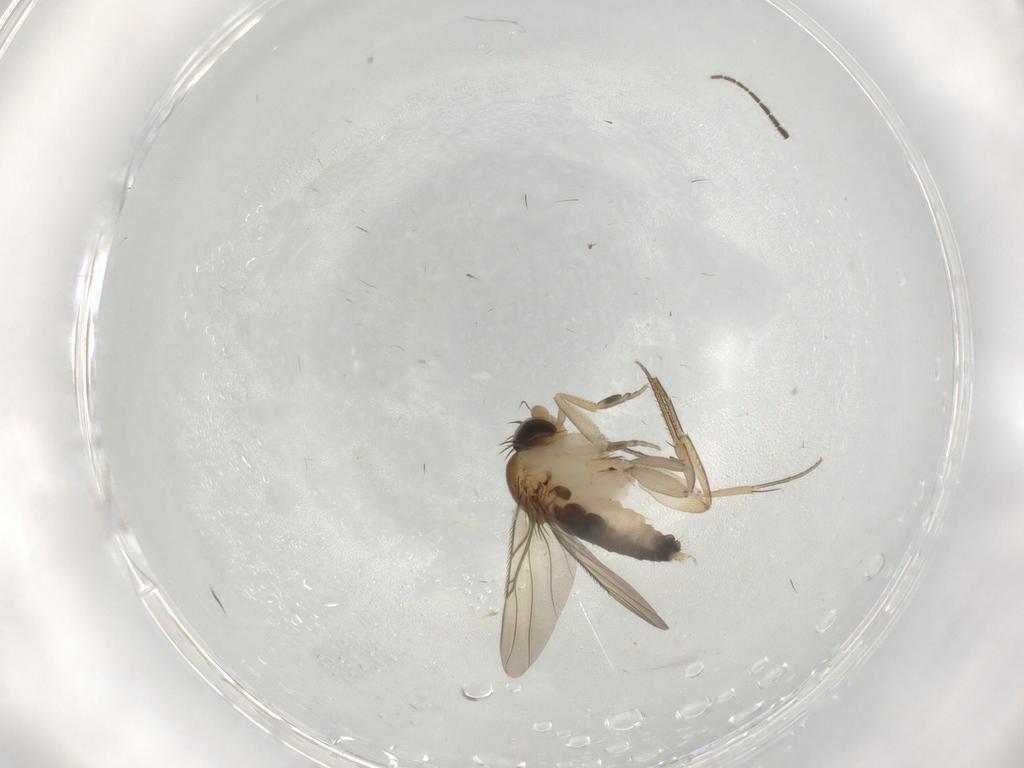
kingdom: Animalia
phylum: Arthropoda
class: Insecta
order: Diptera
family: Phoridae
